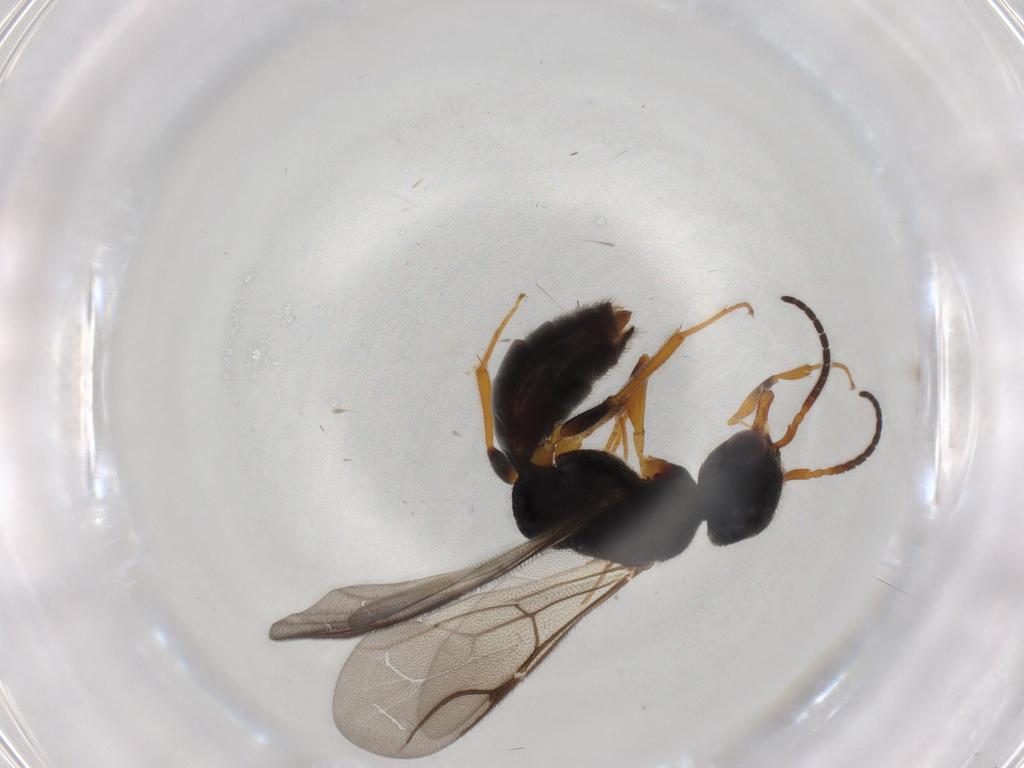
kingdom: Animalia
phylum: Arthropoda
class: Insecta
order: Hymenoptera
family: Bethylidae
